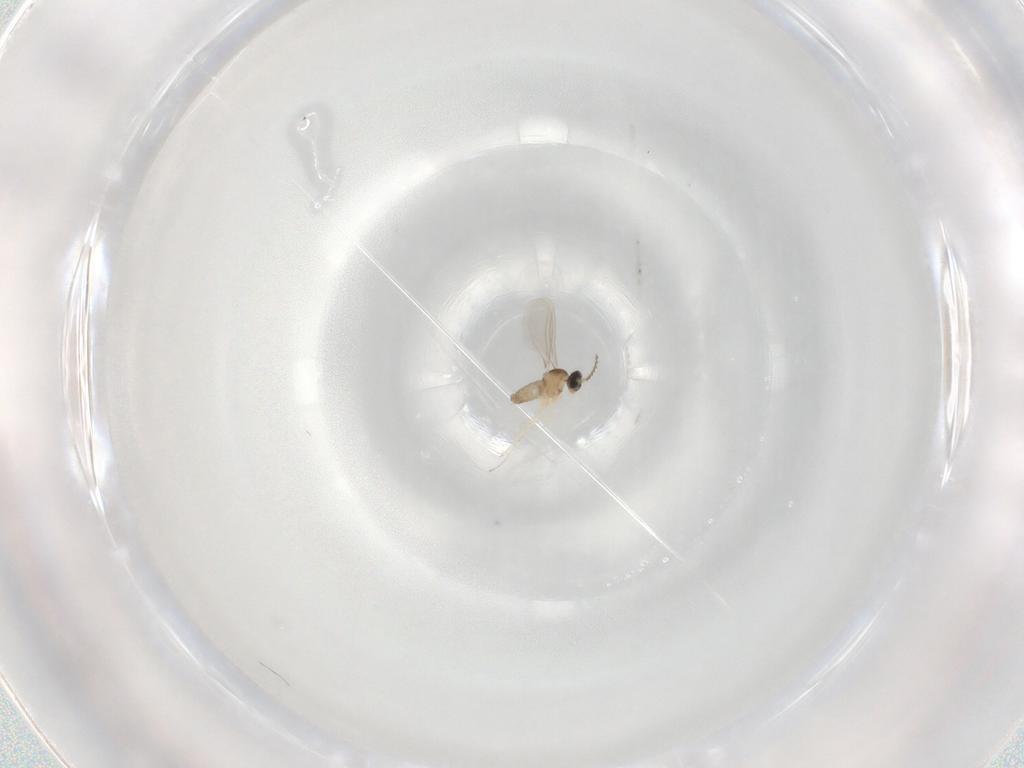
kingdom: Animalia
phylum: Arthropoda
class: Insecta
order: Diptera
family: Cecidomyiidae
